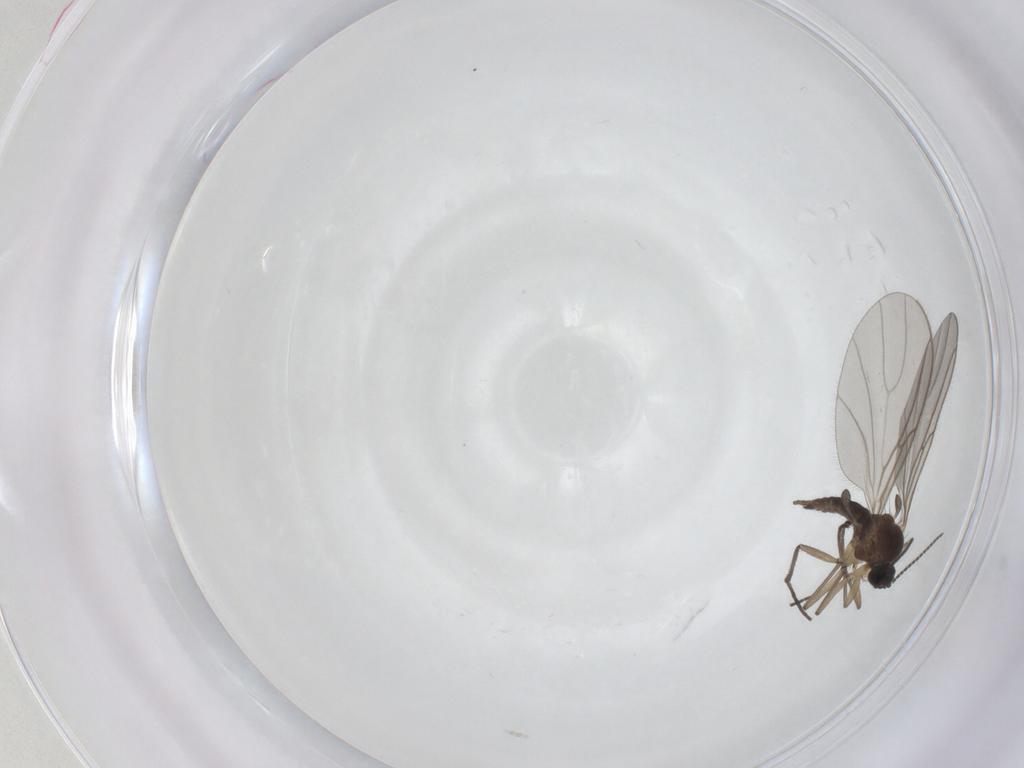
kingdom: Animalia
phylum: Arthropoda
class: Insecta
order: Diptera
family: Sciaridae
